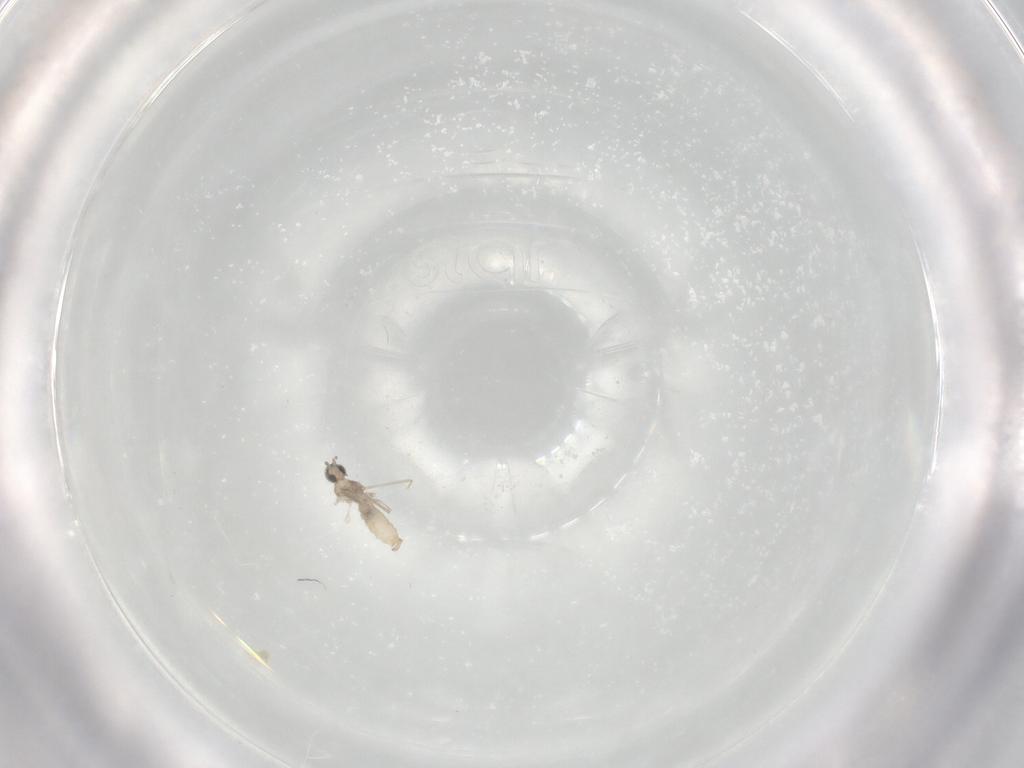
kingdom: Animalia
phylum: Arthropoda
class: Insecta
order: Diptera
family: Cecidomyiidae
